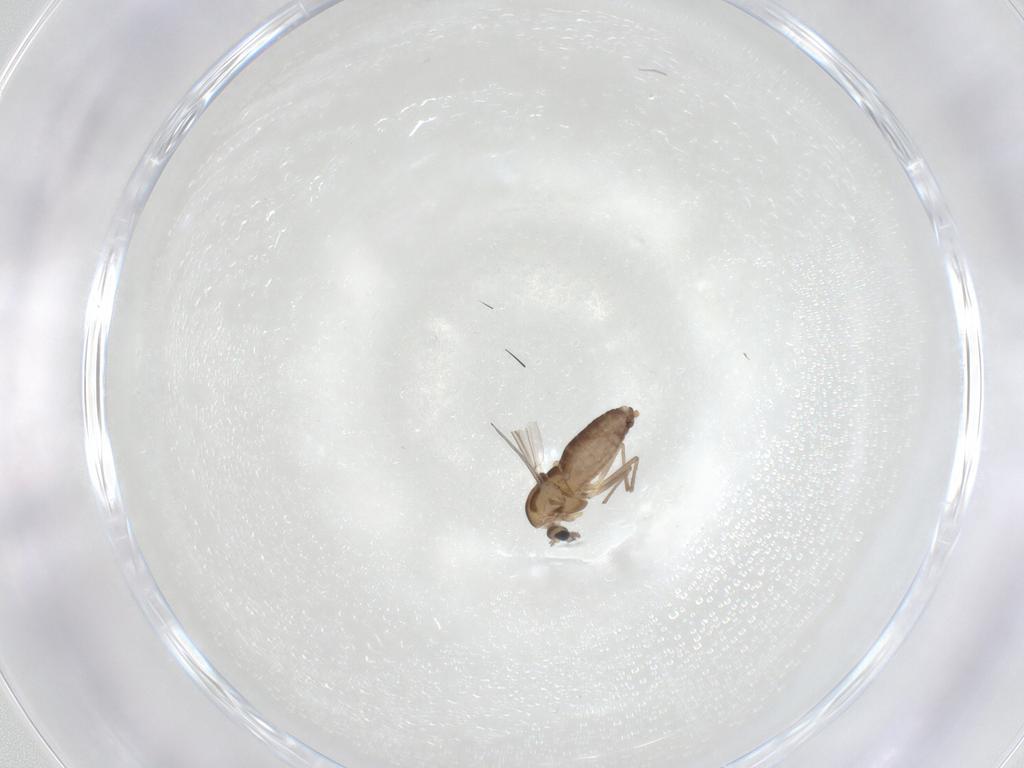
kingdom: Animalia
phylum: Arthropoda
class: Insecta
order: Diptera
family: Chironomidae
